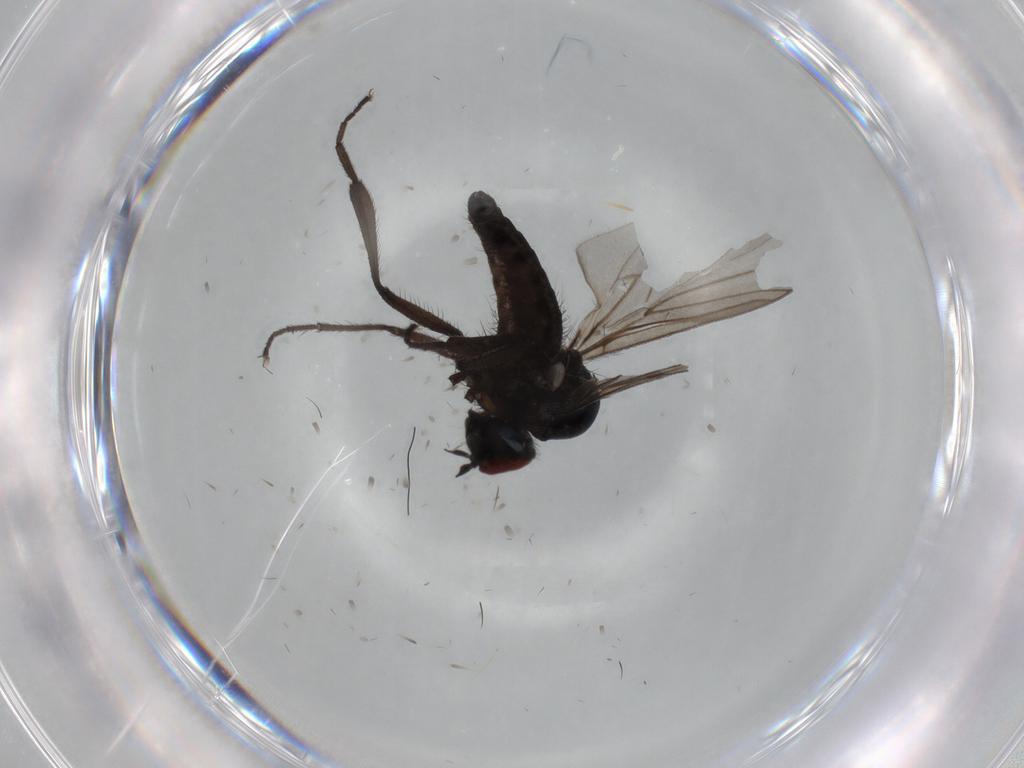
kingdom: Animalia
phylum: Arthropoda
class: Insecta
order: Diptera
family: Hybotidae
